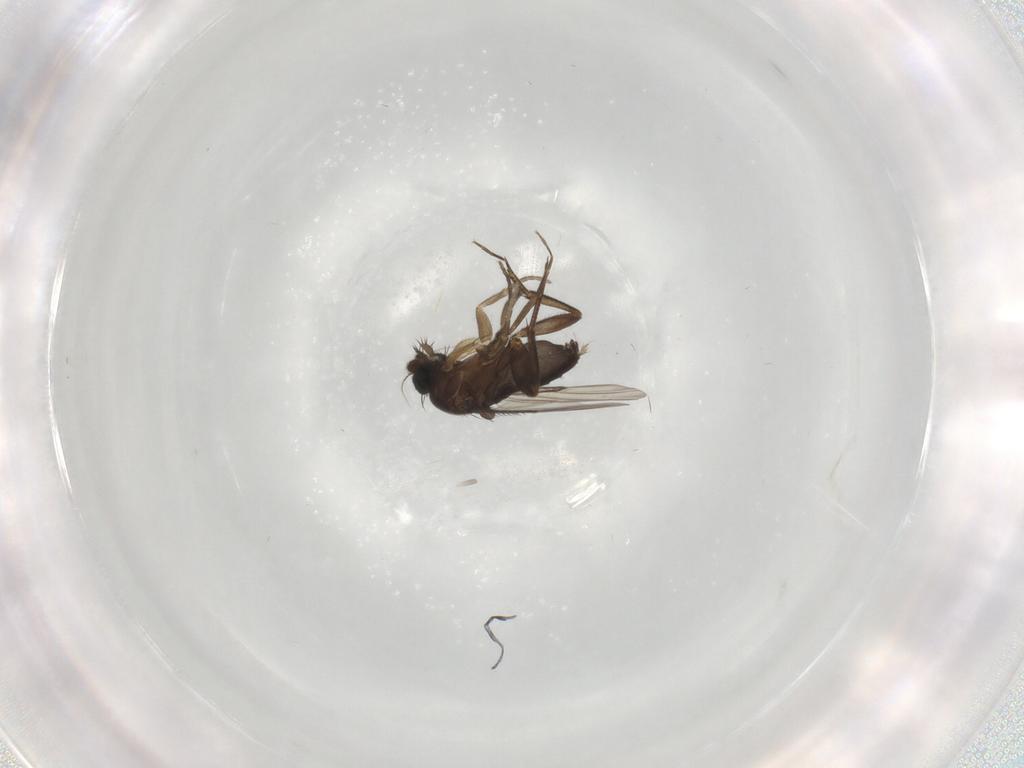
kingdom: Animalia
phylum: Arthropoda
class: Insecta
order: Diptera
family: Phoridae
